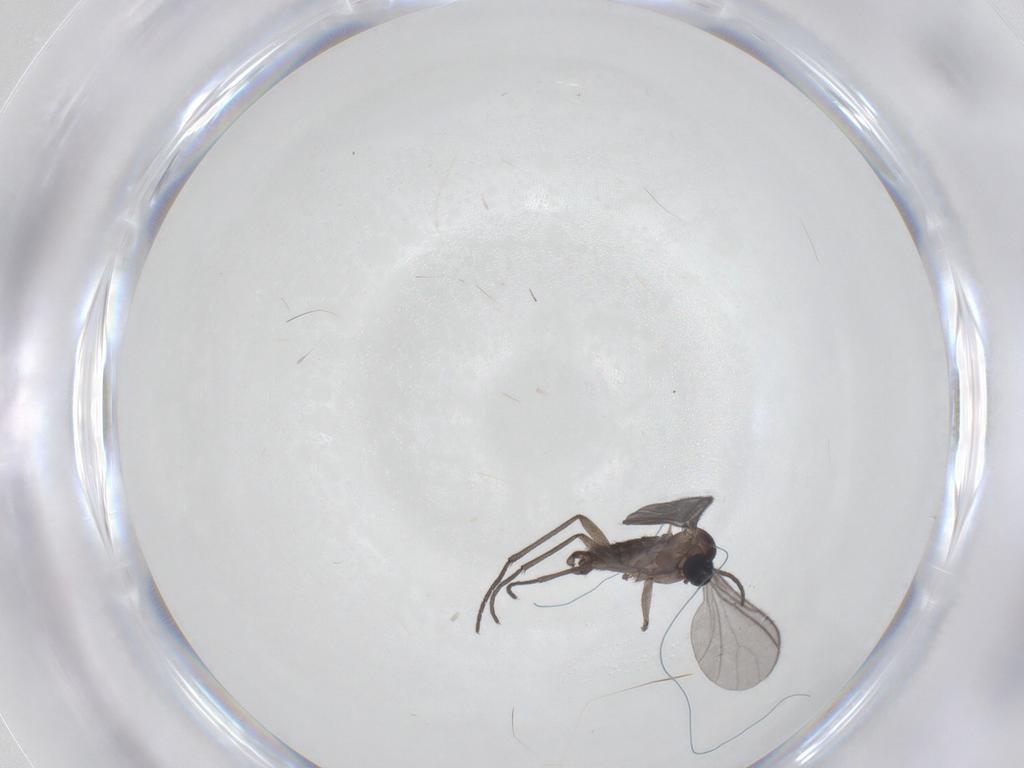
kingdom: Animalia
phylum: Arthropoda
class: Insecta
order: Diptera
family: Sciaridae
